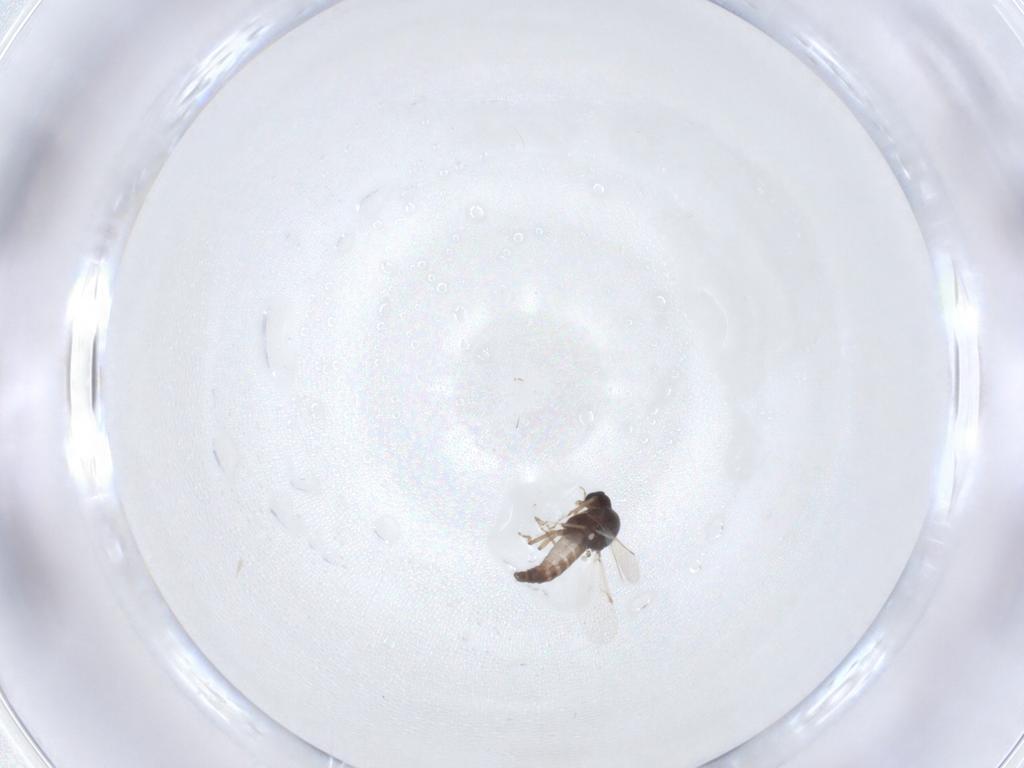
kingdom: Animalia
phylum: Arthropoda
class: Insecta
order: Diptera
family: Ceratopogonidae
